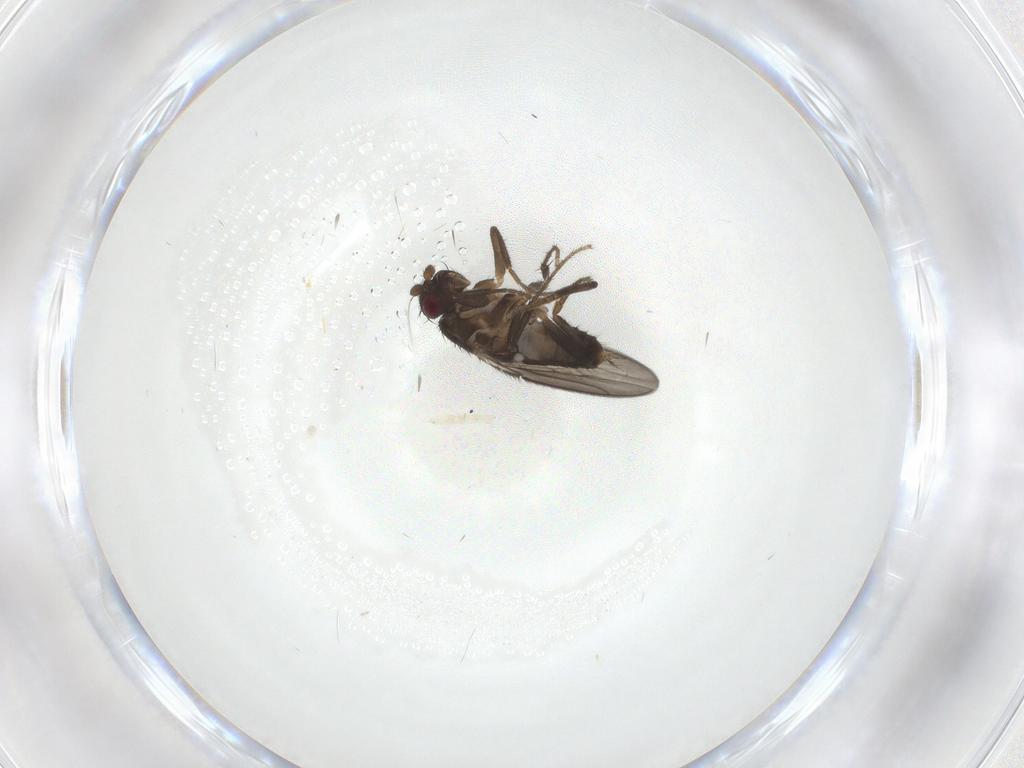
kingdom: Animalia
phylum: Arthropoda
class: Insecta
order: Diptera
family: Sphaeroceridae
